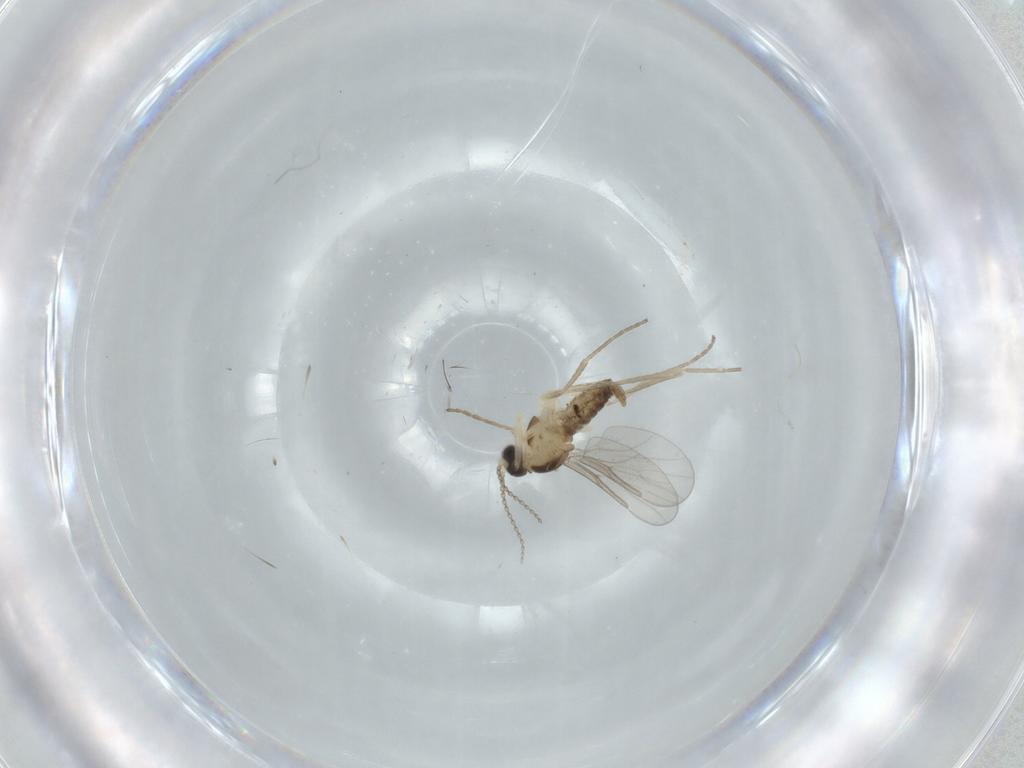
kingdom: Animalia
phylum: Arthropoda
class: Insecta
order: Diptera
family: Cecidomyiidae
